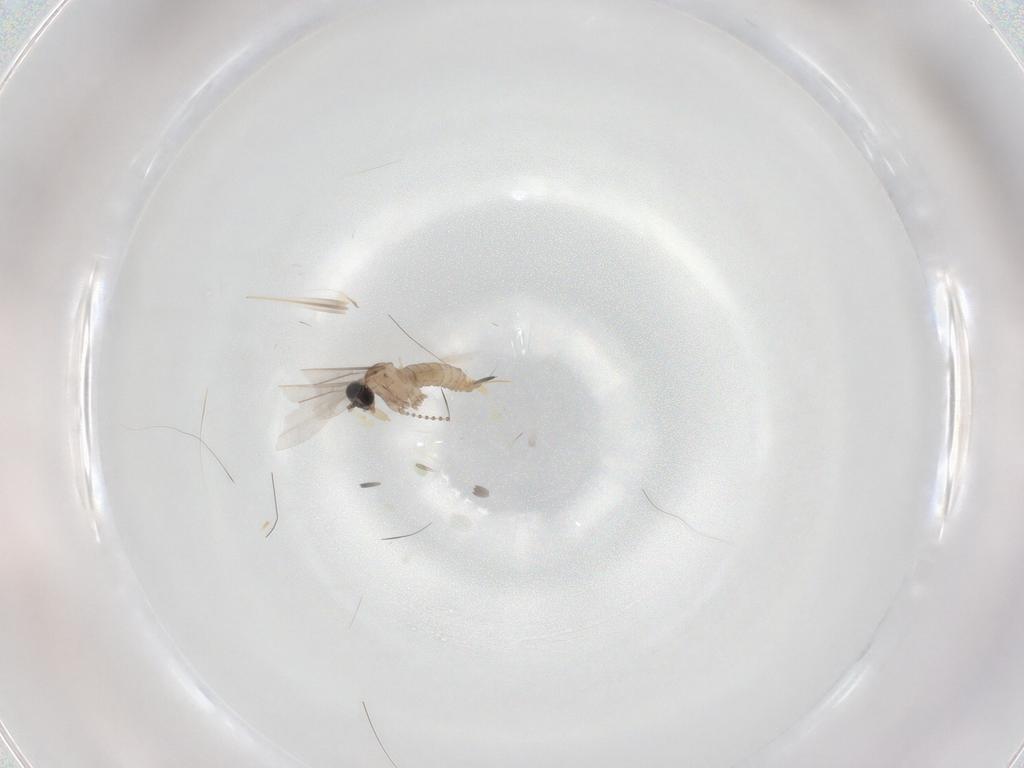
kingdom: Animalia
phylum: Arthropoda
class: Insecta
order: Diptera
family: Cecidomyiidae
